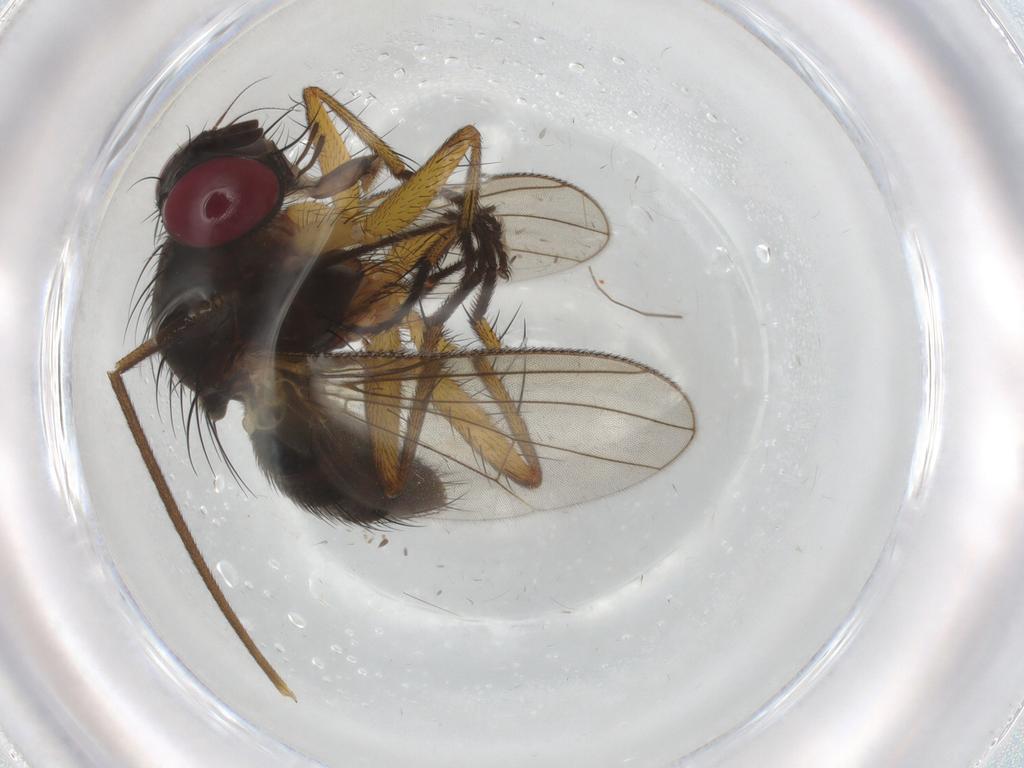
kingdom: Animalia
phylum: Arthropoda
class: Insecta
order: Diptera
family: Muscidae
